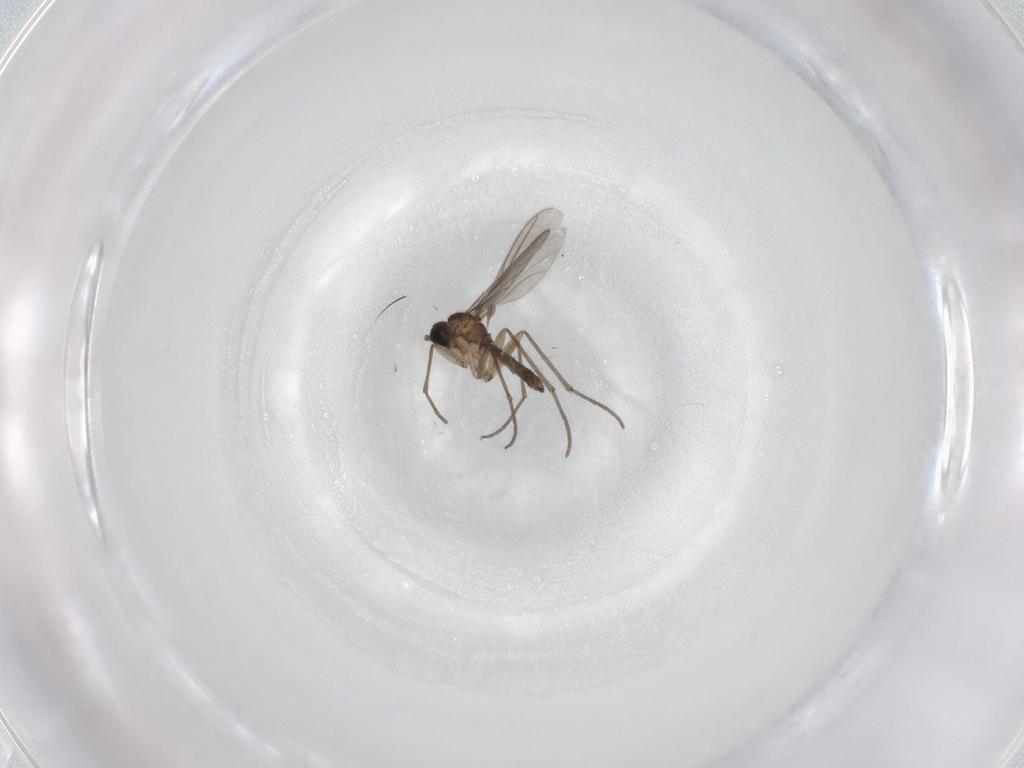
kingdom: Animalia
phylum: Arthropoda
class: Insecta
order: Diptera
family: Sciaridae
